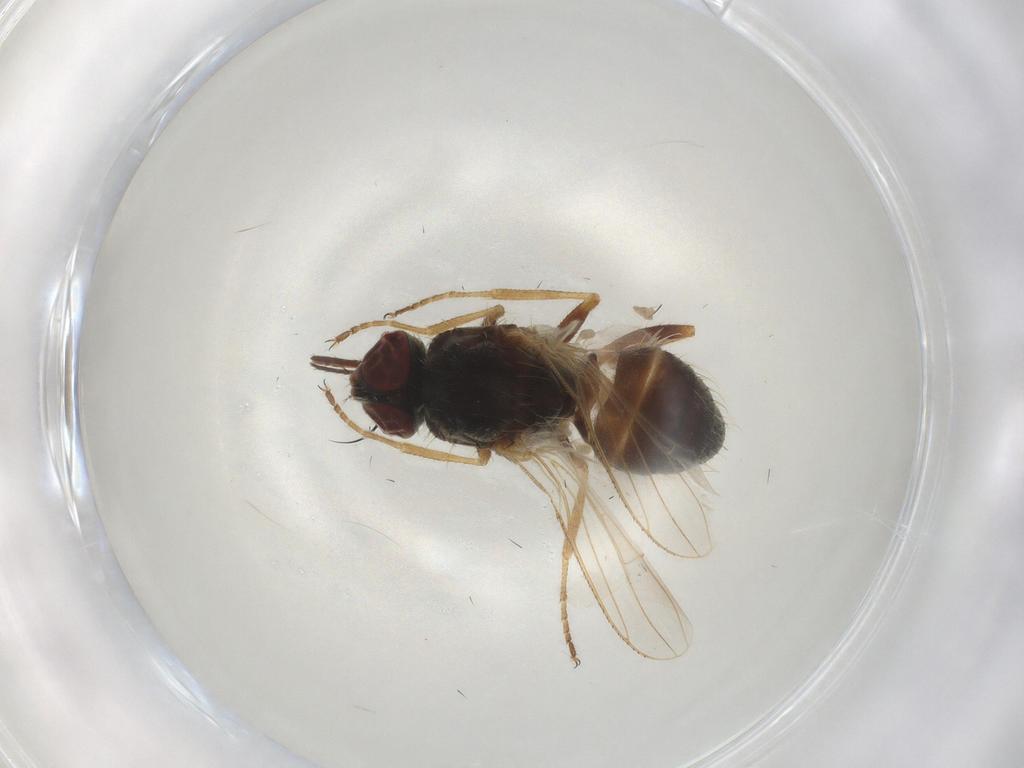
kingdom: Animalia
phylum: Arthropoda
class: Insecta
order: Diptera
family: Muscidae
